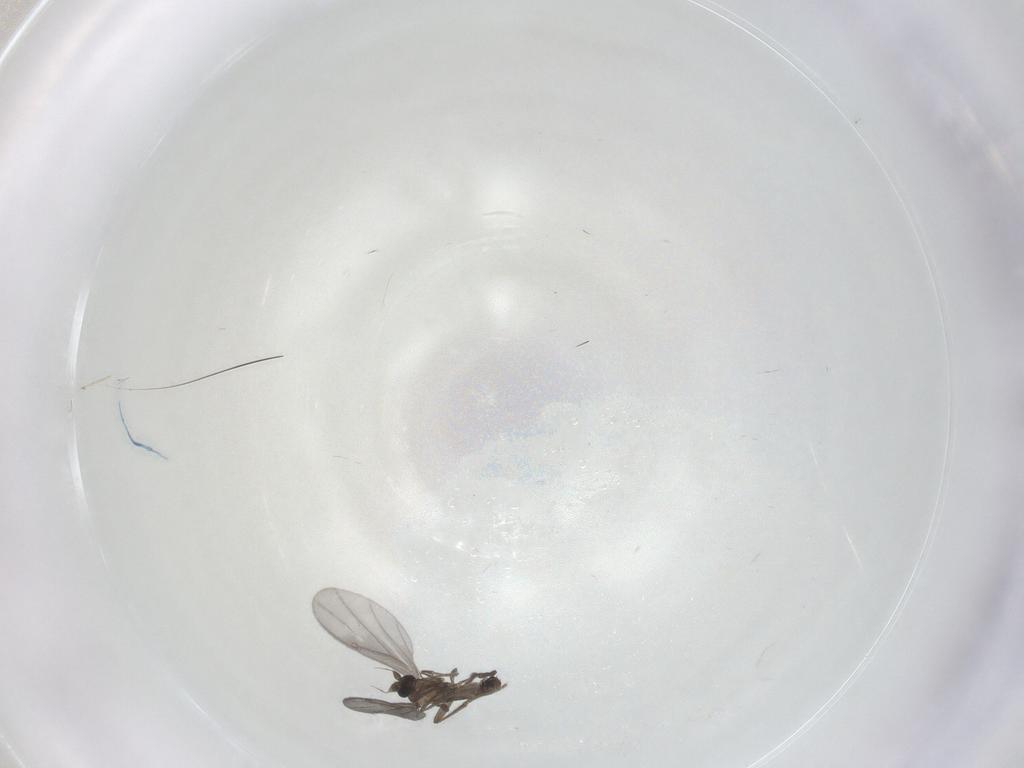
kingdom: Animalia
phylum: Arthropoda
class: Insecta
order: Diptera
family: Phoridae
